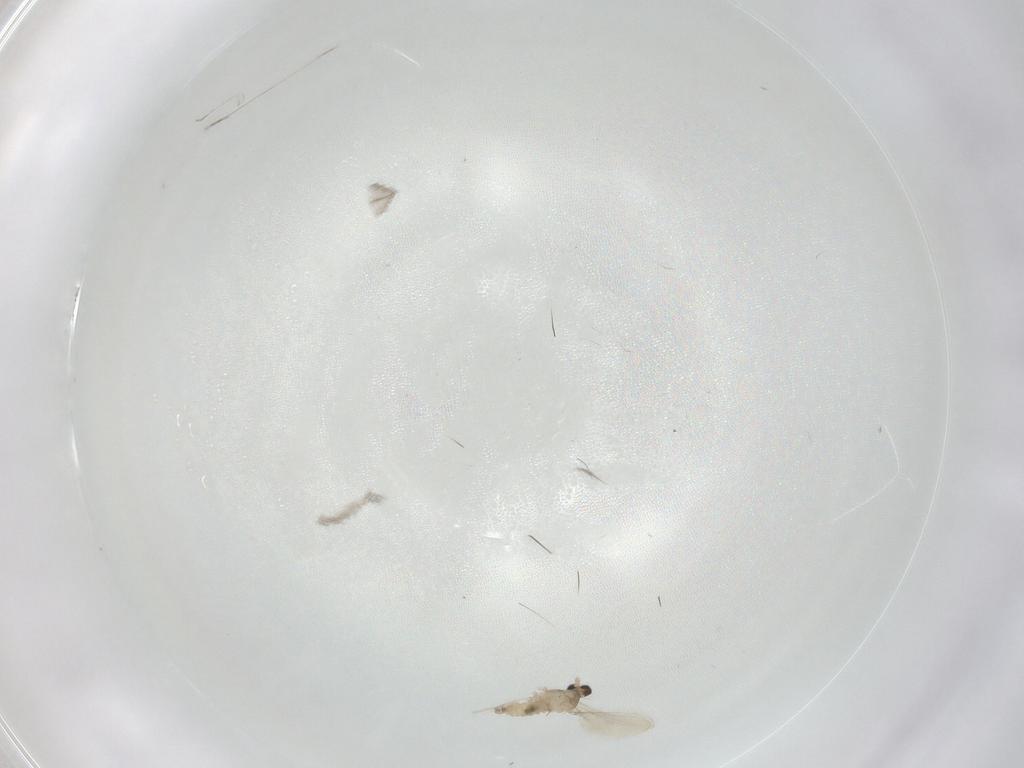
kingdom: Animalia
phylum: Arthropoda
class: Insecta
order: Diptera
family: Cecidomyiidae
